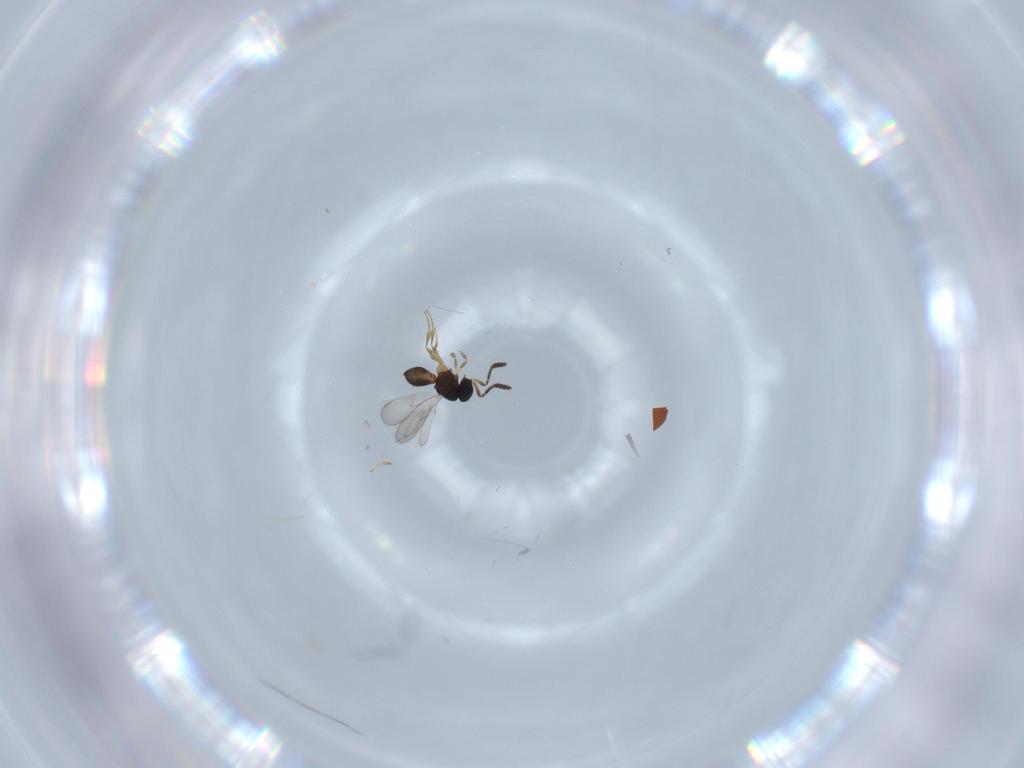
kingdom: Animalia
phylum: Arthropoda
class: Insecta
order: Hymenoptera
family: Scelionidae
